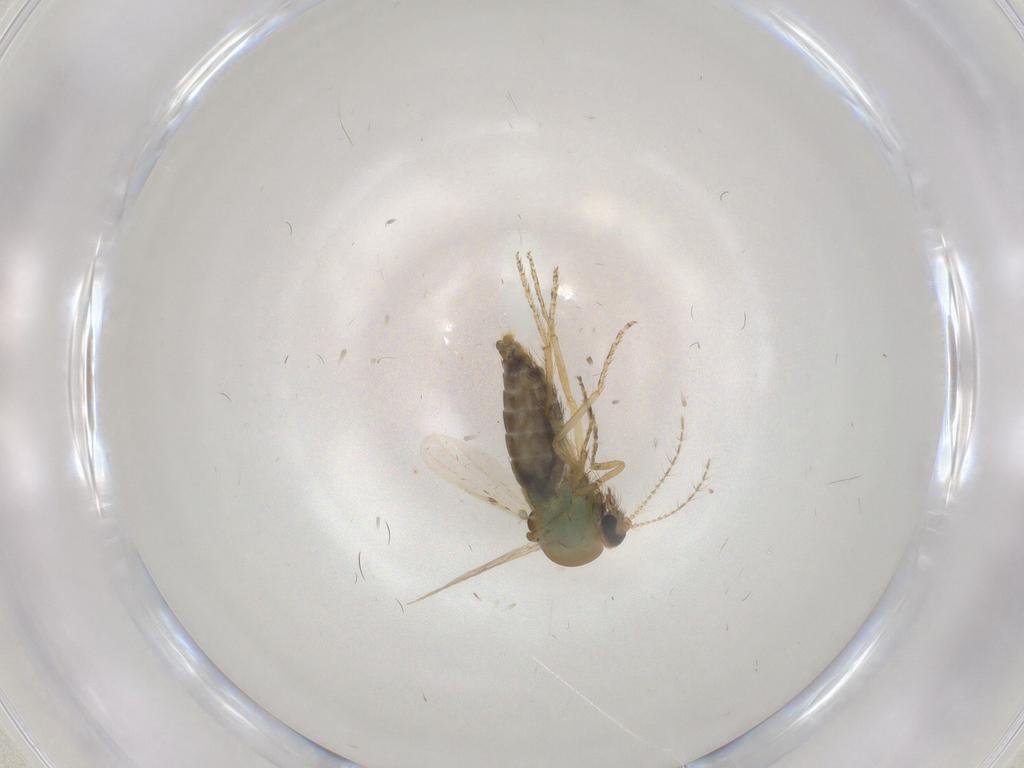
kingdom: Animalia
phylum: Arthropoda
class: Insecta
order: Diptera
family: Ceratopogonidae
